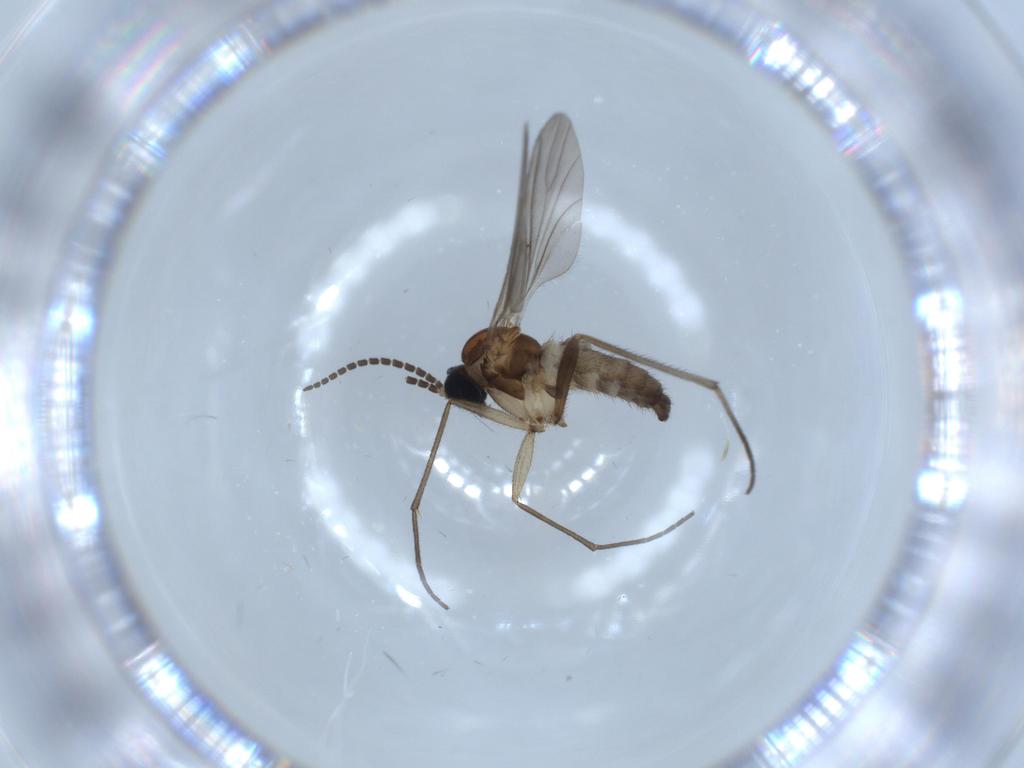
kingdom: Animalia
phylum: Arthropoda
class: Insecta
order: Diptera
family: Sciaridae
